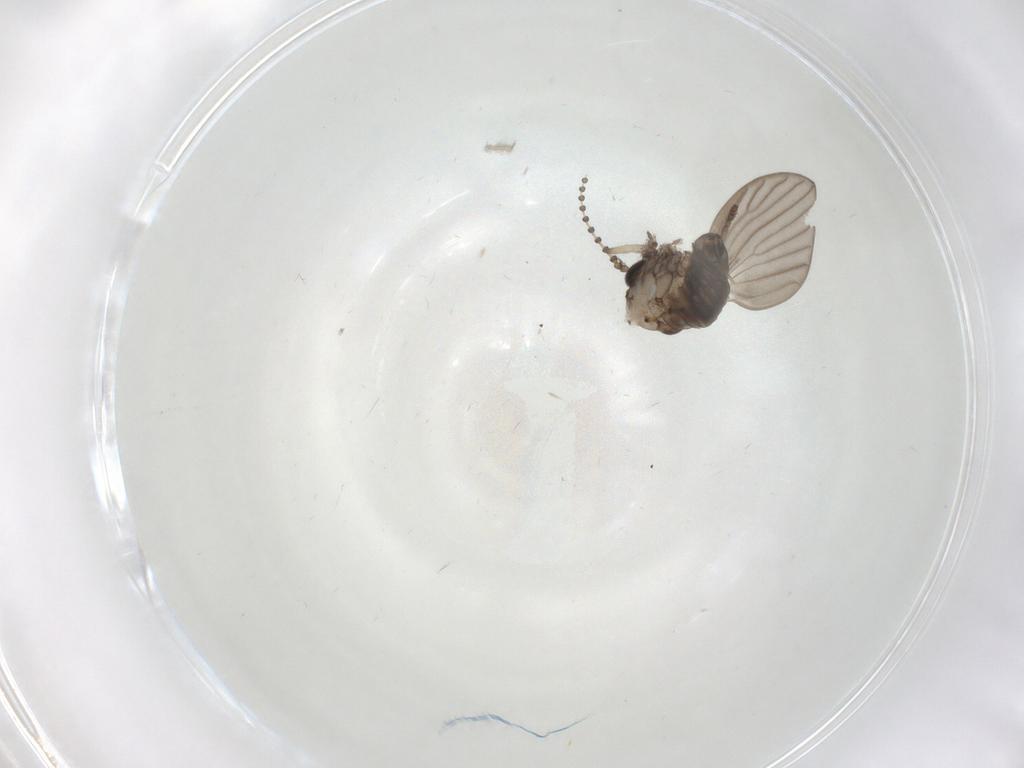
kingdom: Animalia
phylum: Arthropoda
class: Insecta
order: Diptera
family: Psychodidae
